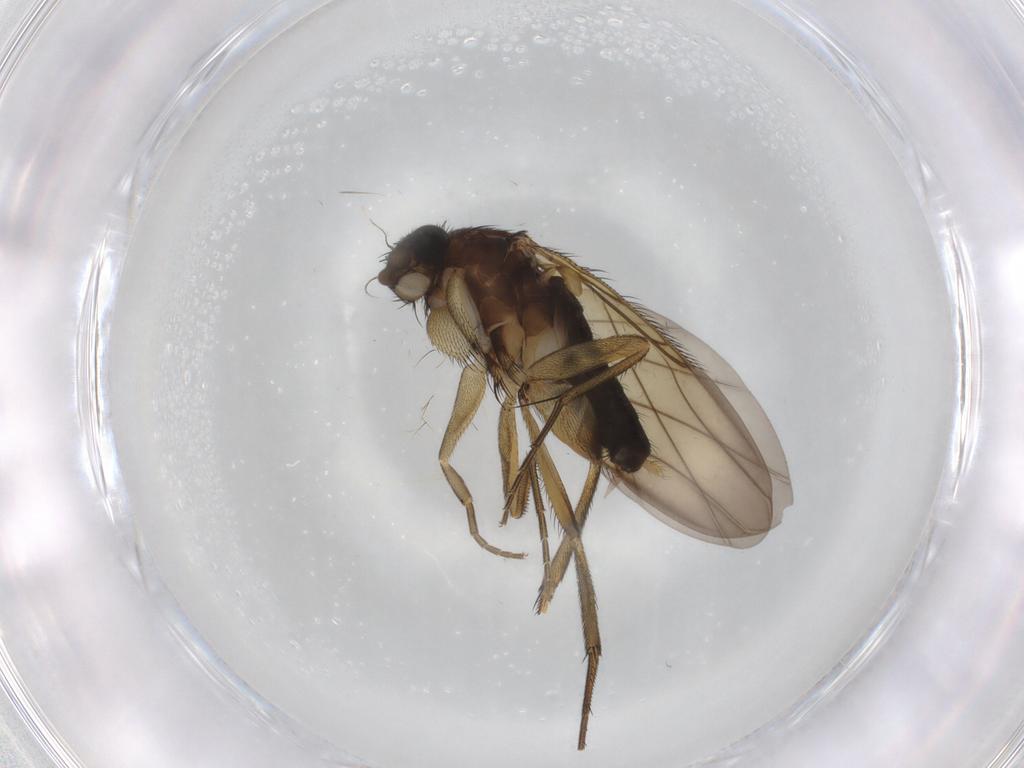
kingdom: Animalia
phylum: Arthropoda
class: Insecta
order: Diptera
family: Phoridae
